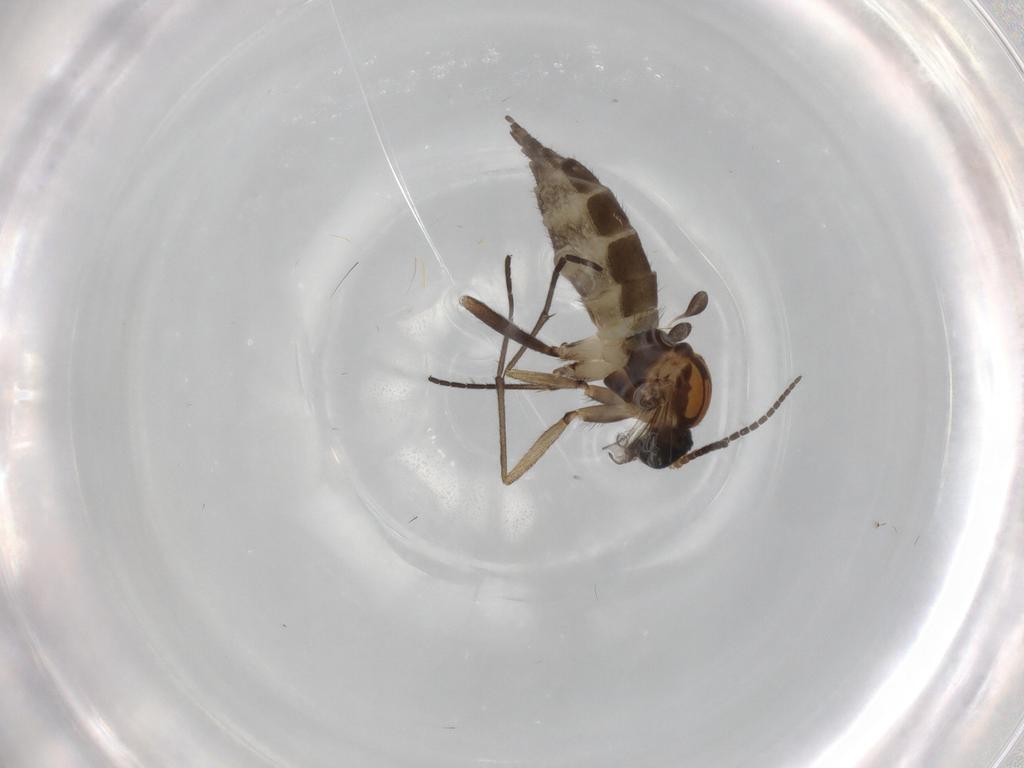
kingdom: Animalia
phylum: Arthropoda
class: Insecta
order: Diptera
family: Sciaridae
